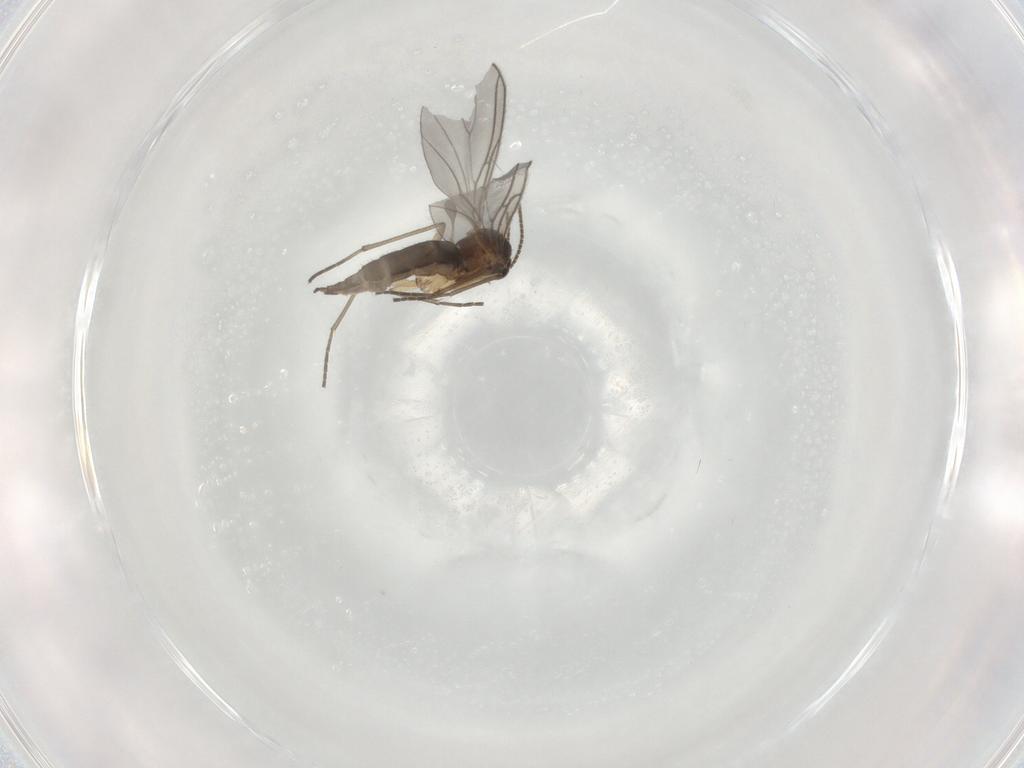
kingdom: Animalia
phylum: Arthropoda
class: Insecta
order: Diptera
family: Sciaridae
